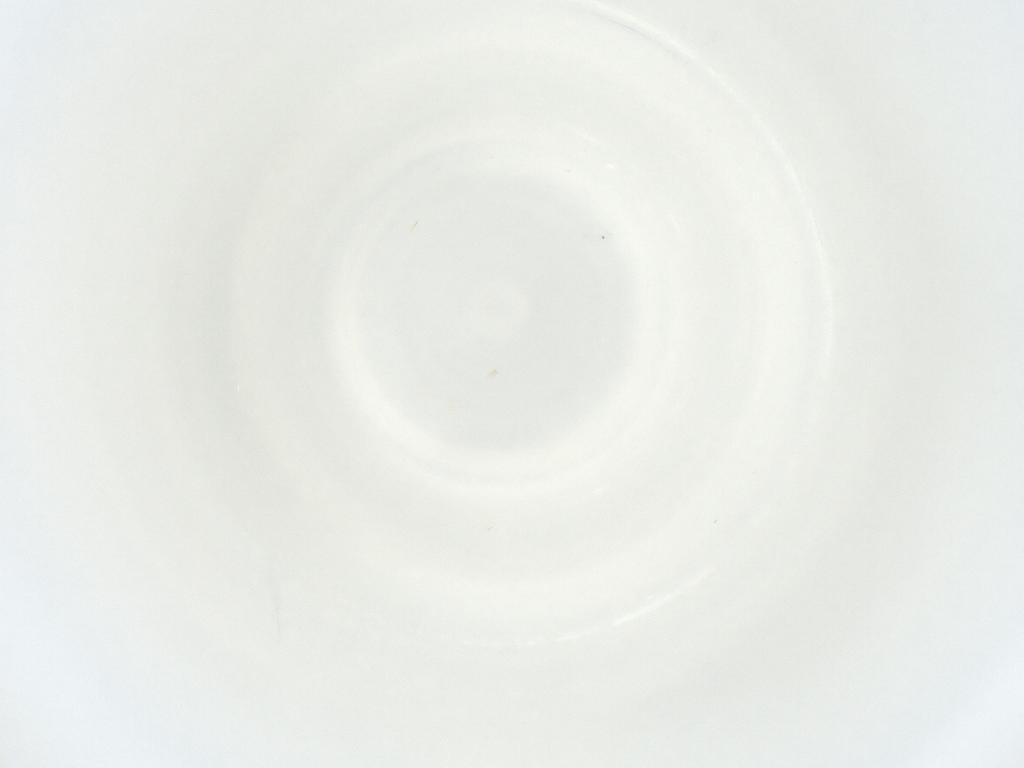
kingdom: Animalia
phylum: Arthropoda
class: Insecta
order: Diptera
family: Chironomidae
